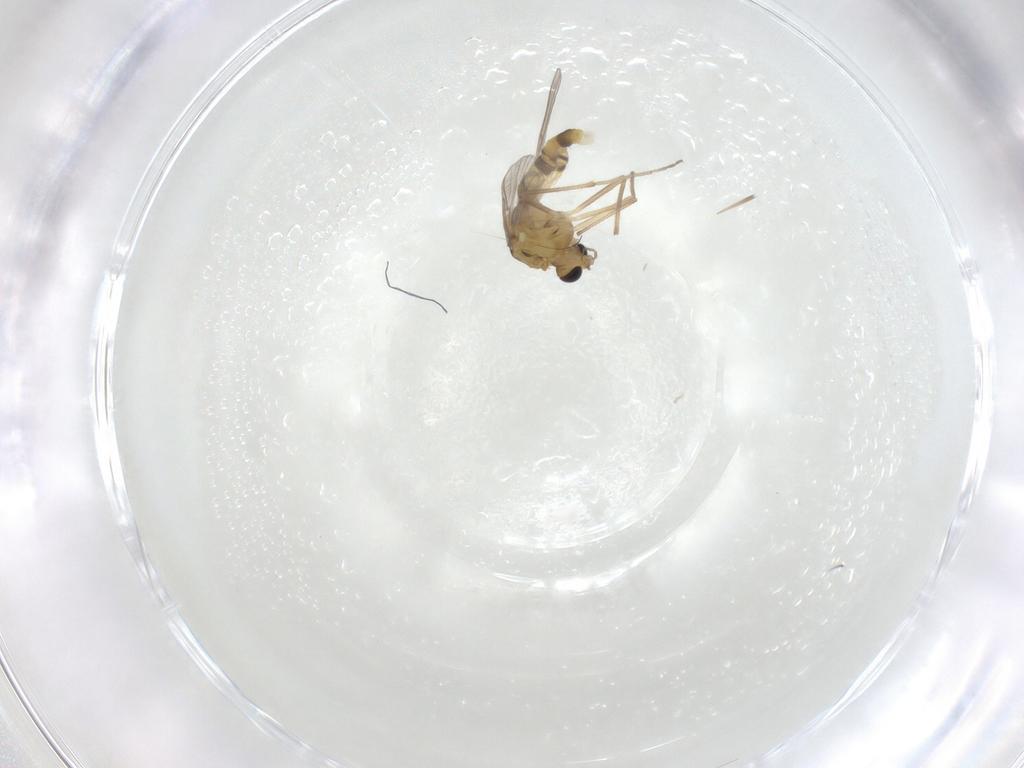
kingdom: Animalia
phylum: Arthropoda
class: Insecta
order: Diptera
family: Chironomidae
